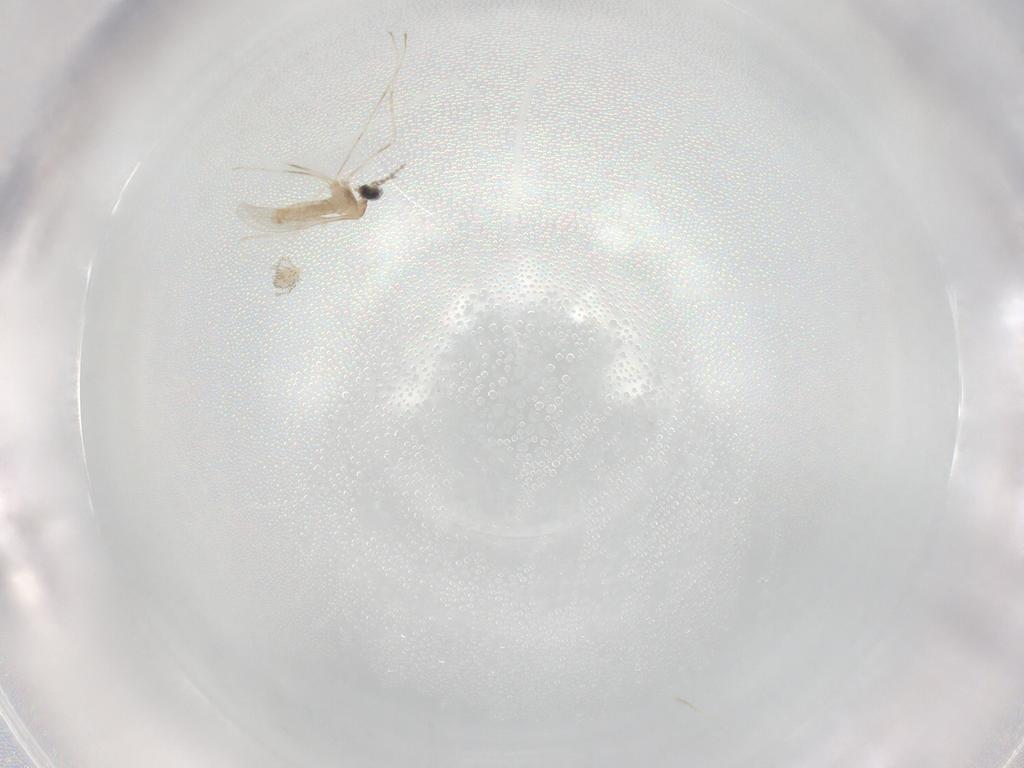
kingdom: Animalia
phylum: Arthropoda
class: Insecta
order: Diptera
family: Cecidomyiidae
